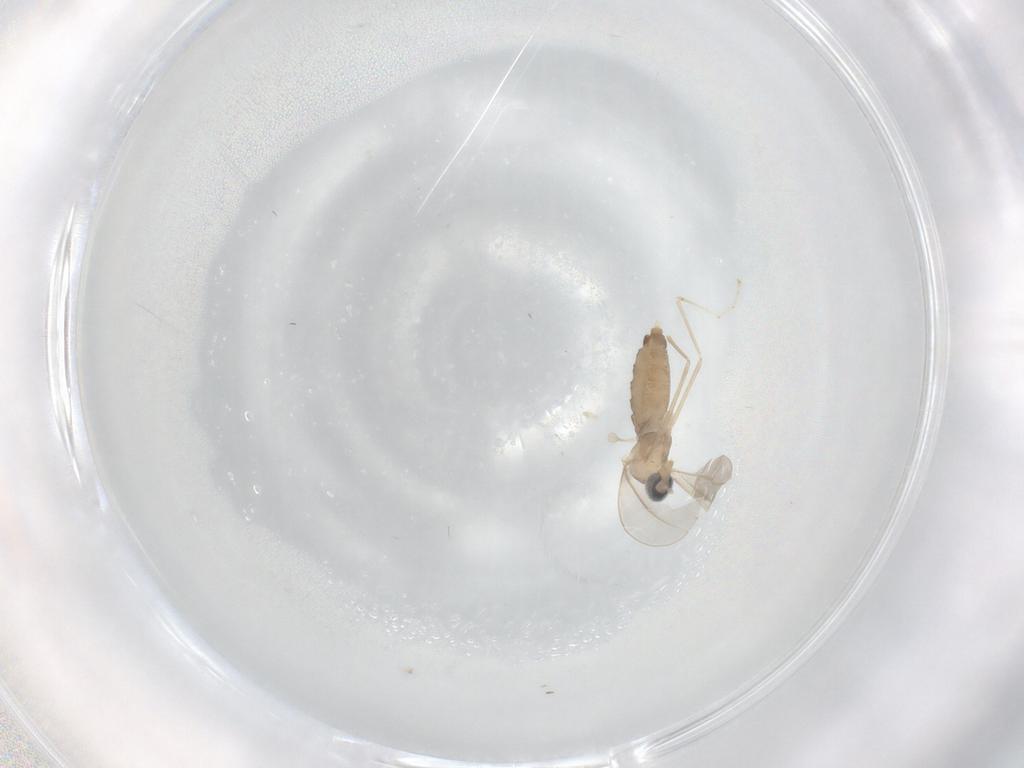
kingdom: Animalia
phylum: Arthropoda
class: Insecta
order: Diptera
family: Cecidomyiidae
